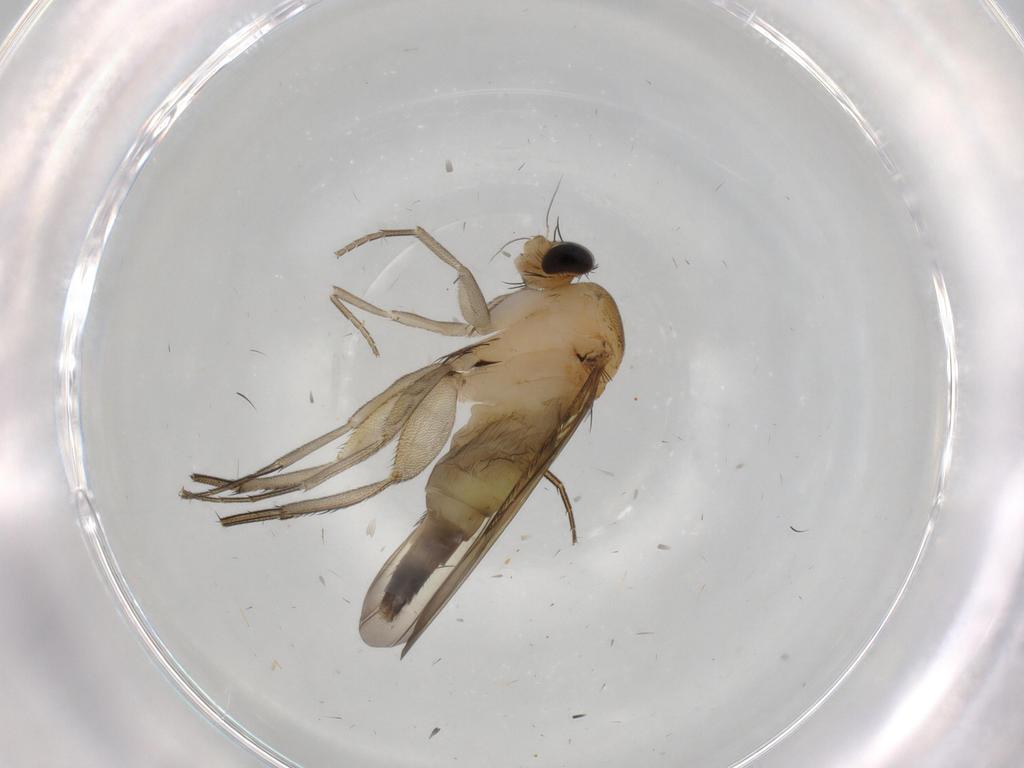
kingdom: Animalia
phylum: Arthropoda
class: Insecta
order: Diptera
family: Phoridae
